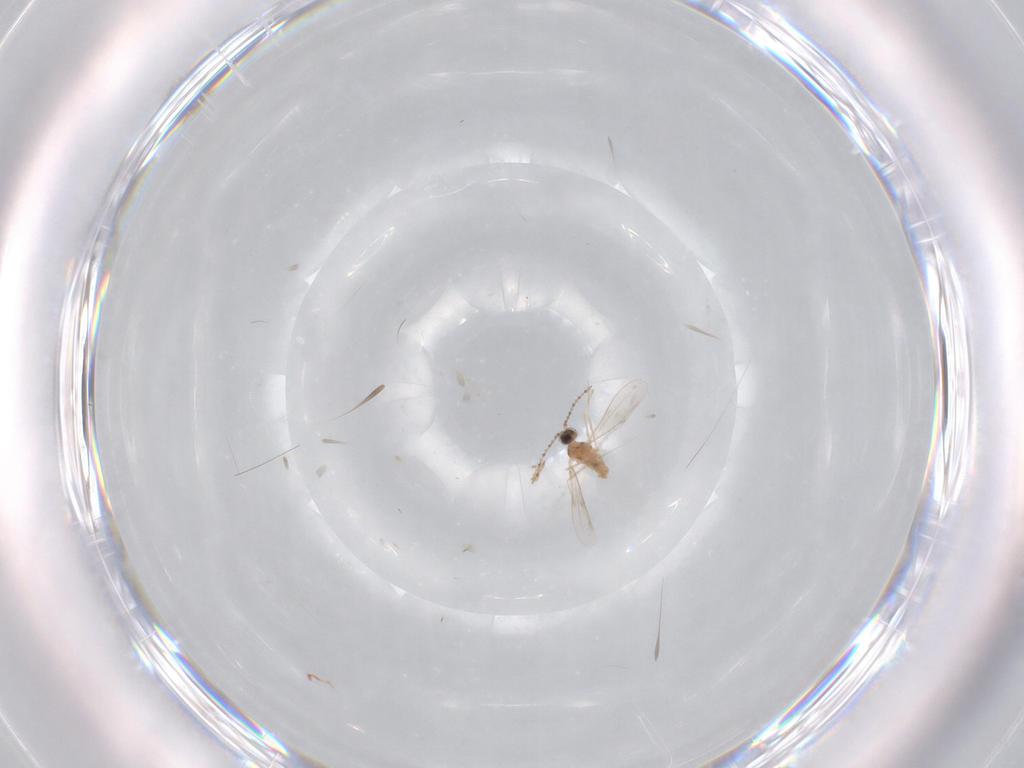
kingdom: Animalia
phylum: Arthropoda
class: Insecta
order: Diptera
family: Cecidomyiidae
